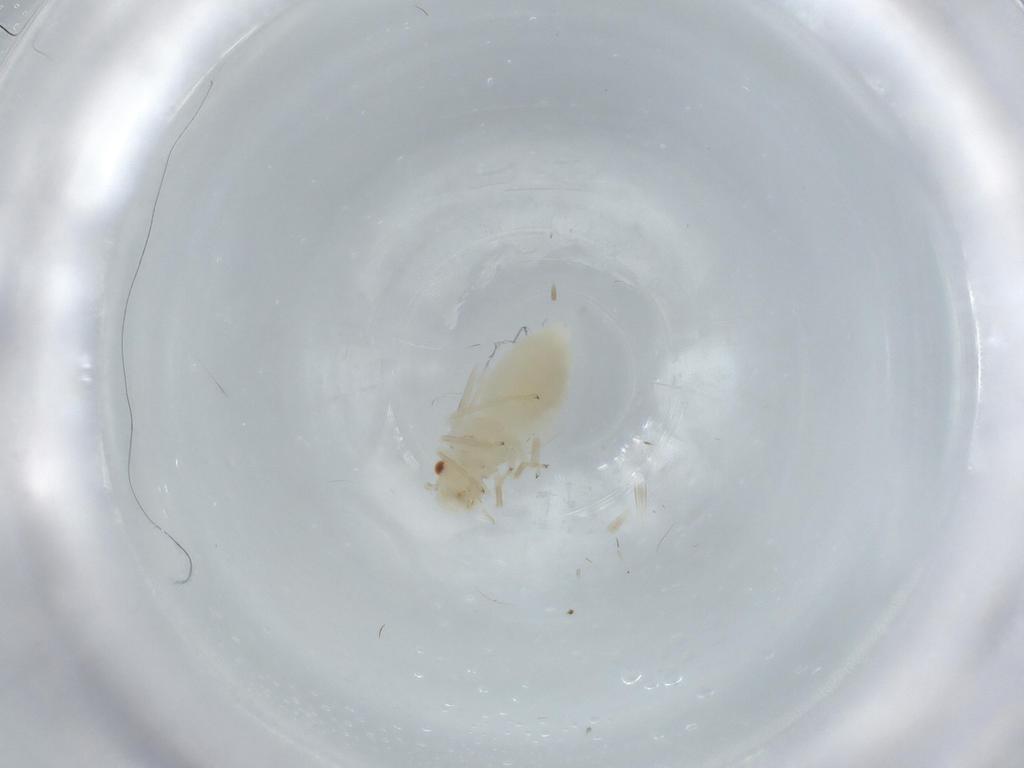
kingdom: Animalia
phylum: Arthropoda
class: Insecta
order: Psocodea
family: Caeciliusidae
